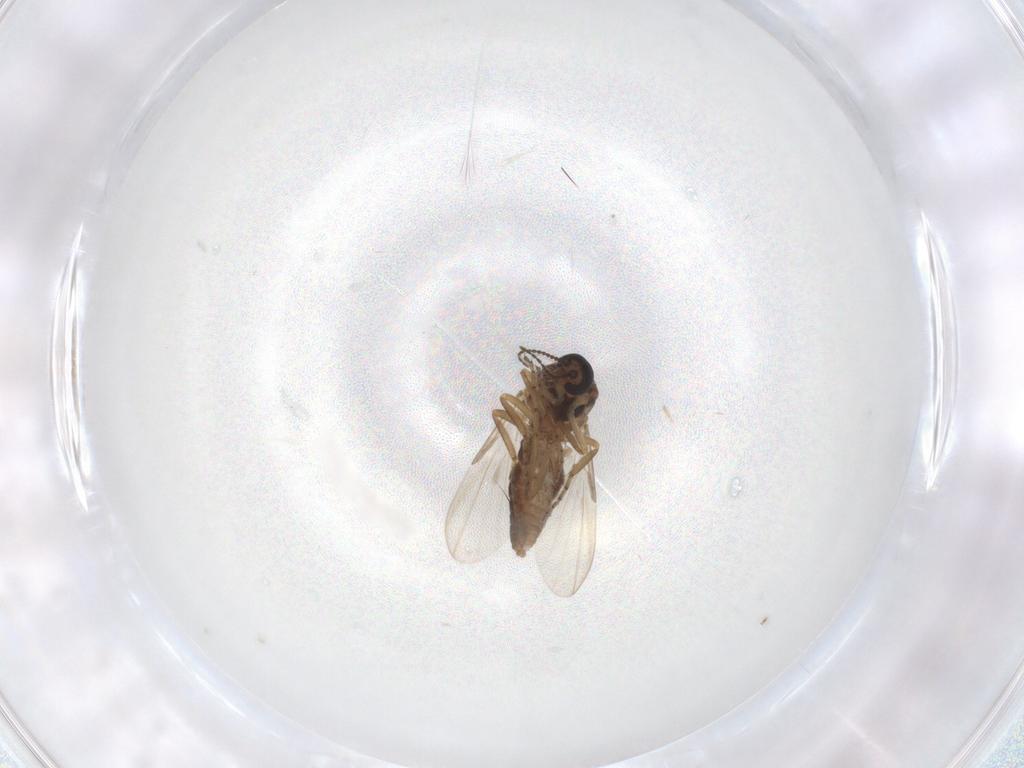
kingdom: Animalia
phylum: Arthropoda
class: Insecta
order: Diptera
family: Ceratopogonidae
